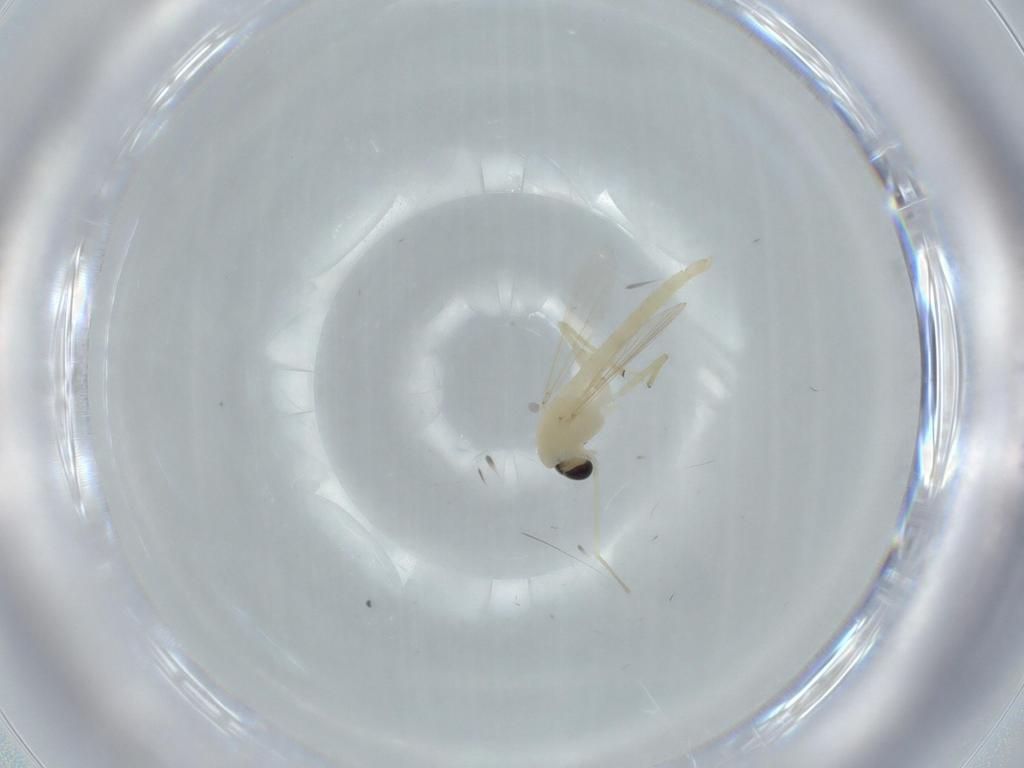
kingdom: Animalia
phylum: Arthropoda
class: Insecta
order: Diptera
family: Chironomidae
